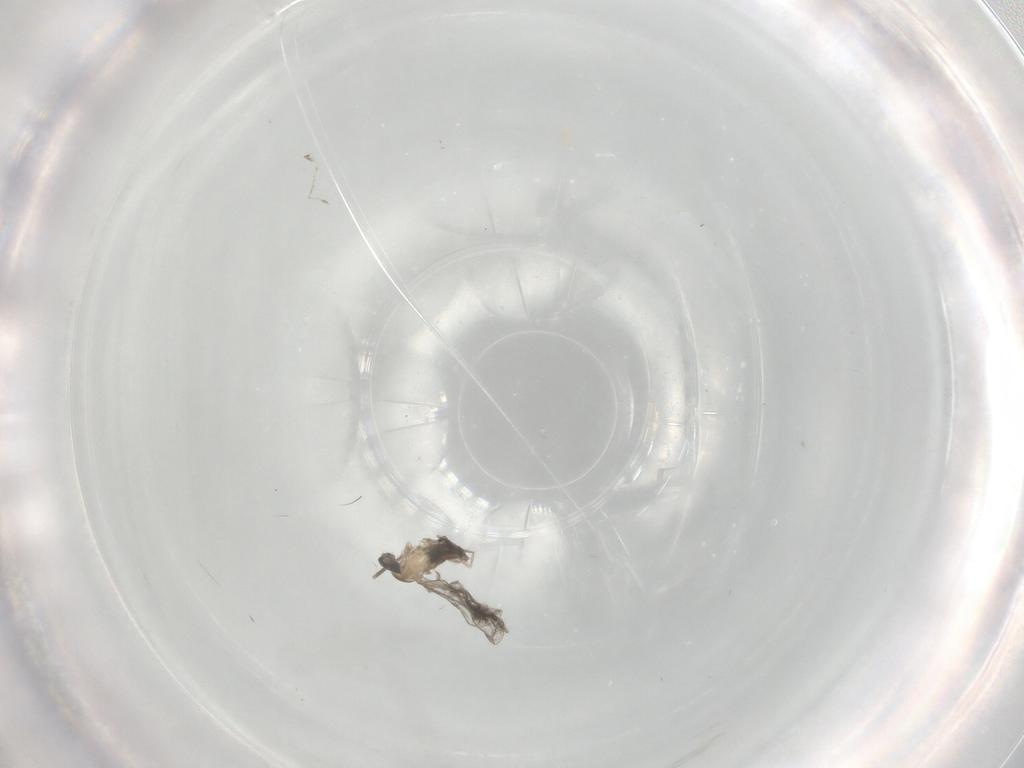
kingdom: Animalia
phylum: Arthropoda
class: Insecta
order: Diptera
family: Cecidomyiidae
